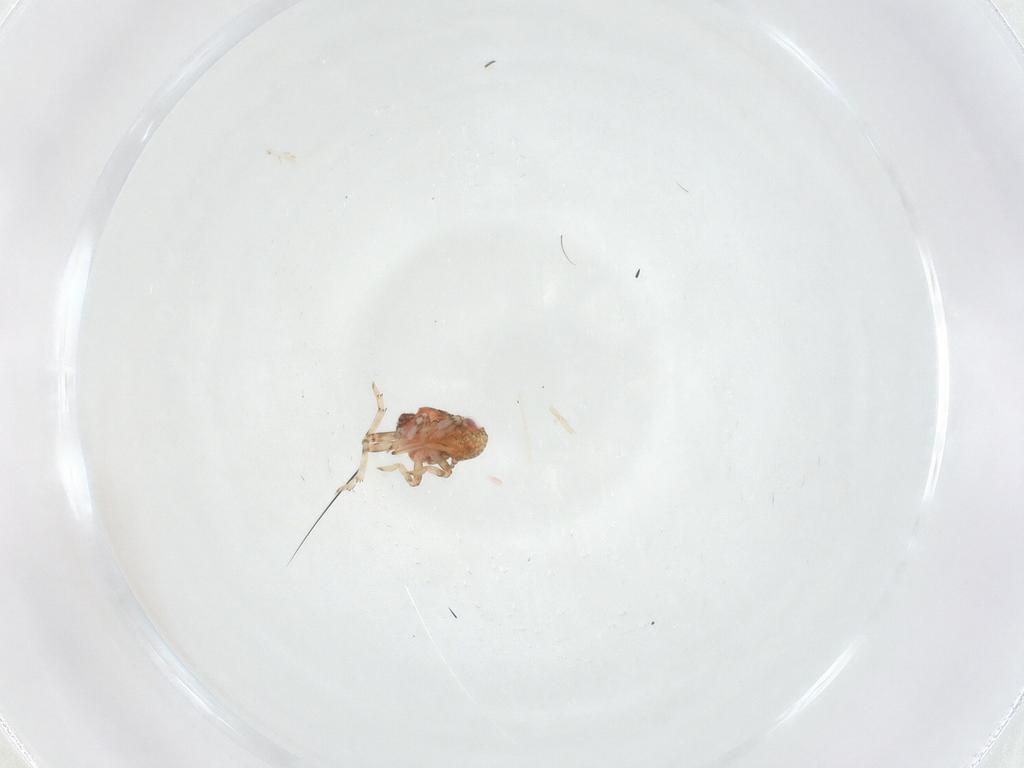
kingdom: Animalia
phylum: Arthropoda
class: Insecta
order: Hemiptera
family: Issidae
